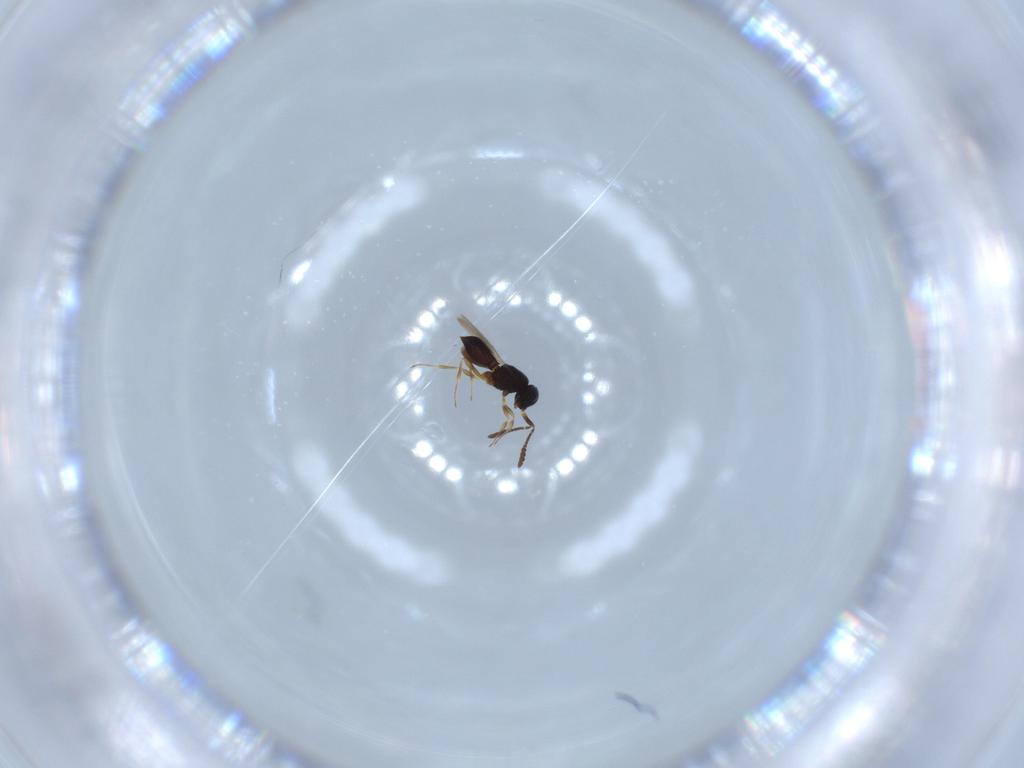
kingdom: Animalia
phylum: Arthropoda
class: Insecta
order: Hymenoptera
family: Scelionidae
